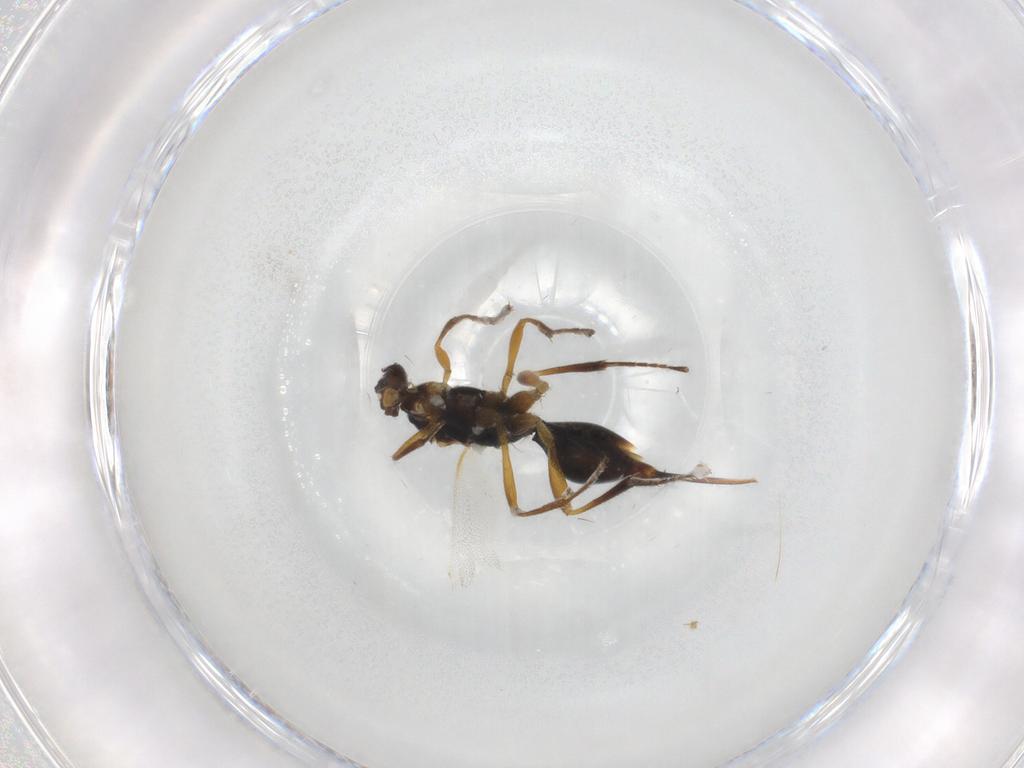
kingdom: Animalia
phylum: Arthropoda
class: Insecta
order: Hymenoptera
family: Proctotrupidae
